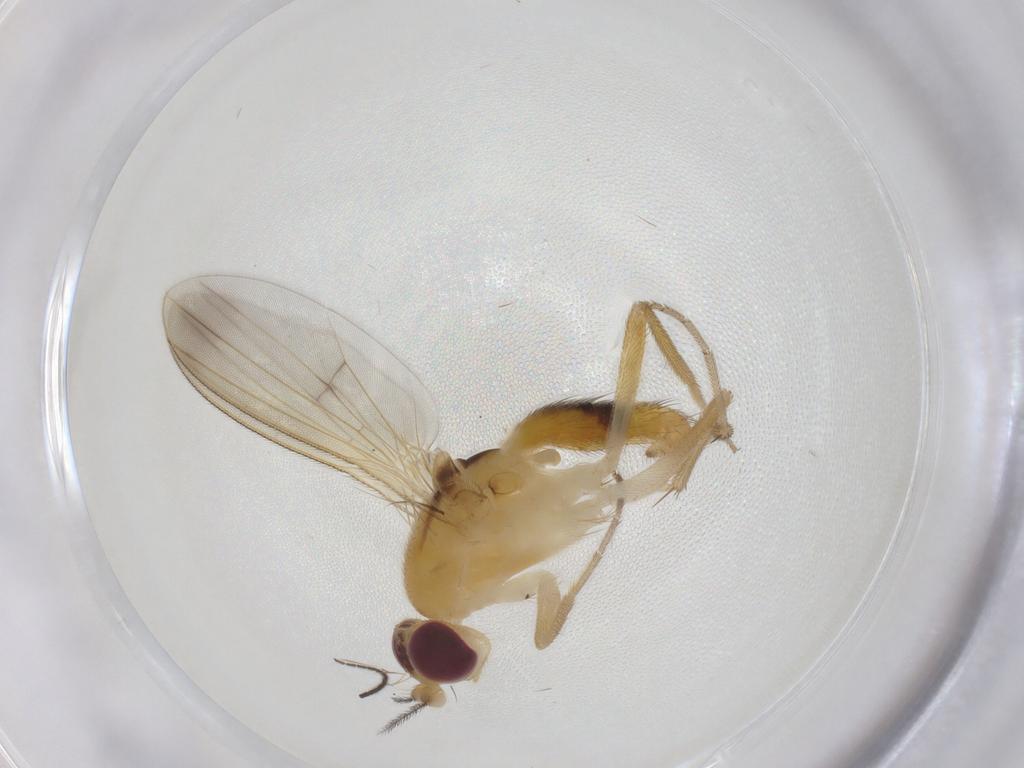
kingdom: Animalia
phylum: Arthropoda
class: Insecta
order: Diptera
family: Clusiidae
